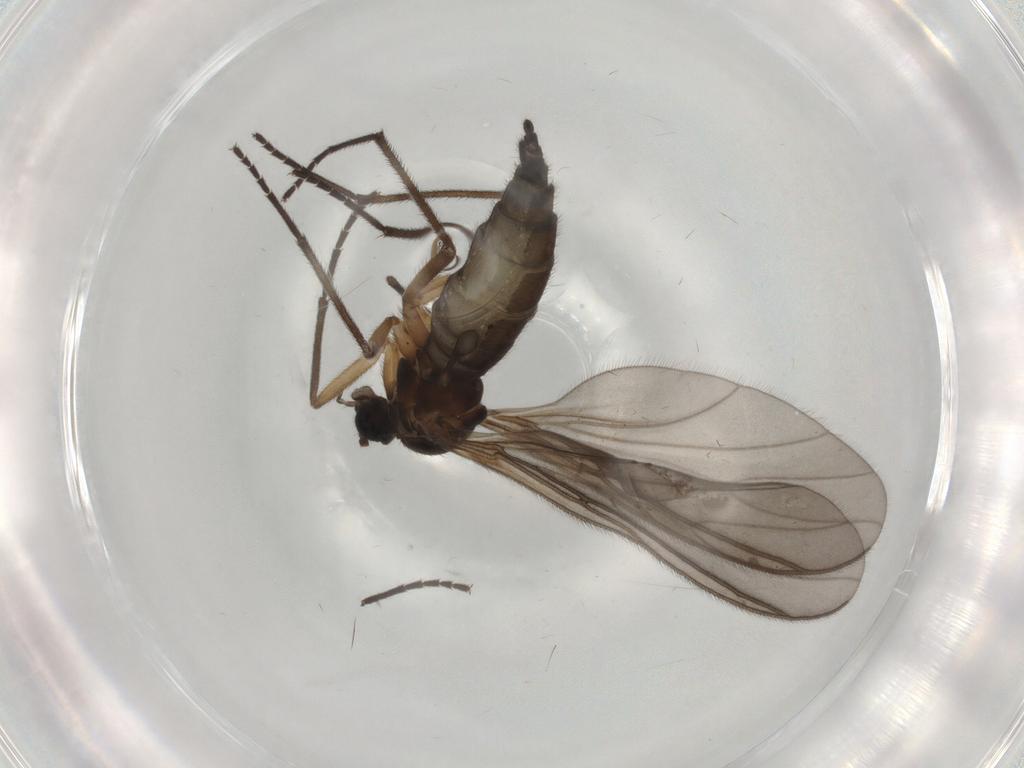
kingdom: Animalia
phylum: Arthropoda
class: Insecta
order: Diptera
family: Sciaridae
